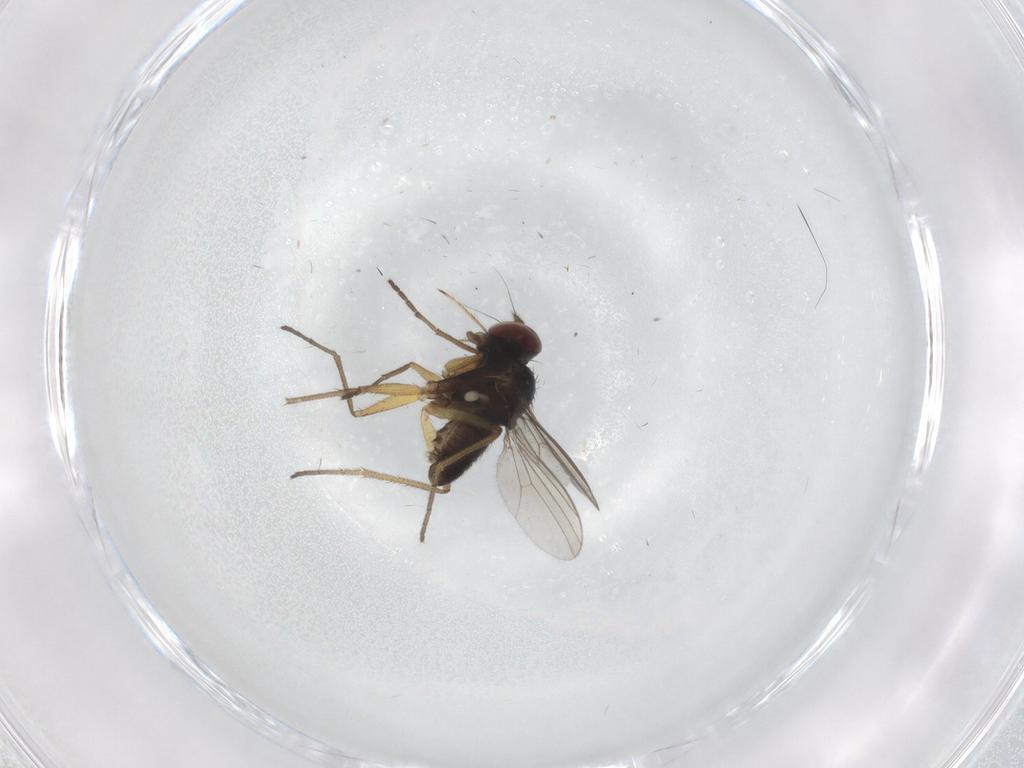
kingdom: Animalia
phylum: Arthropoda
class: Insecta
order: Diptera
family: Dolichopodidae
